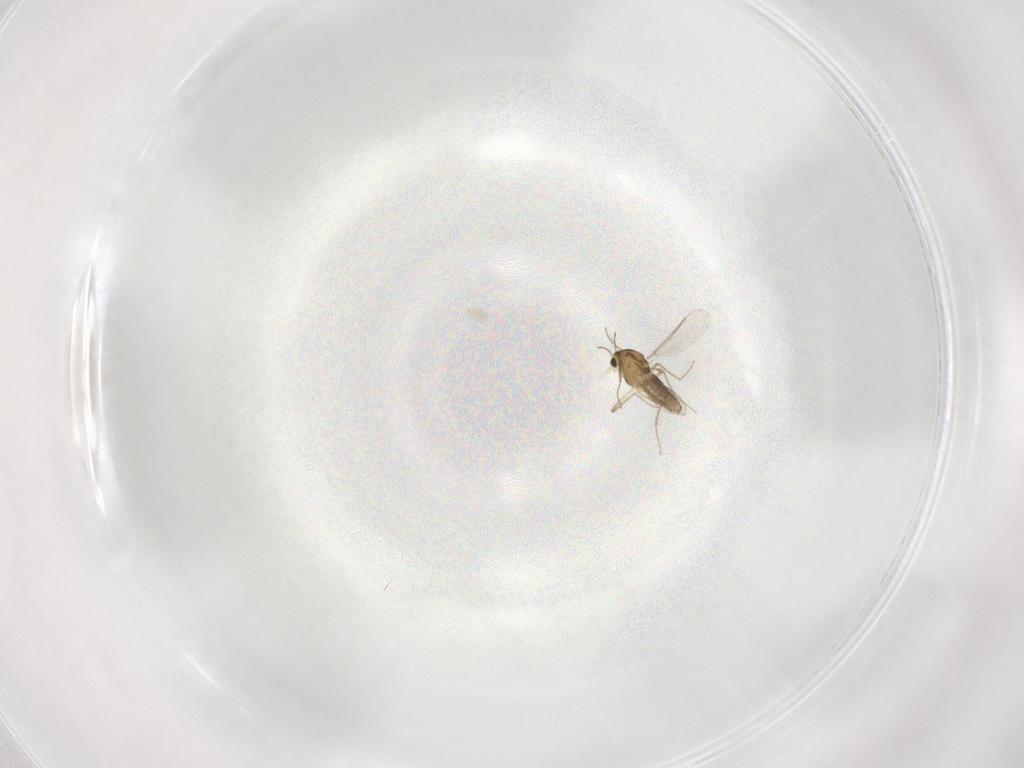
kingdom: Animalia
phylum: Arthropoda
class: Insecta
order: Diptera
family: Chironomidae
